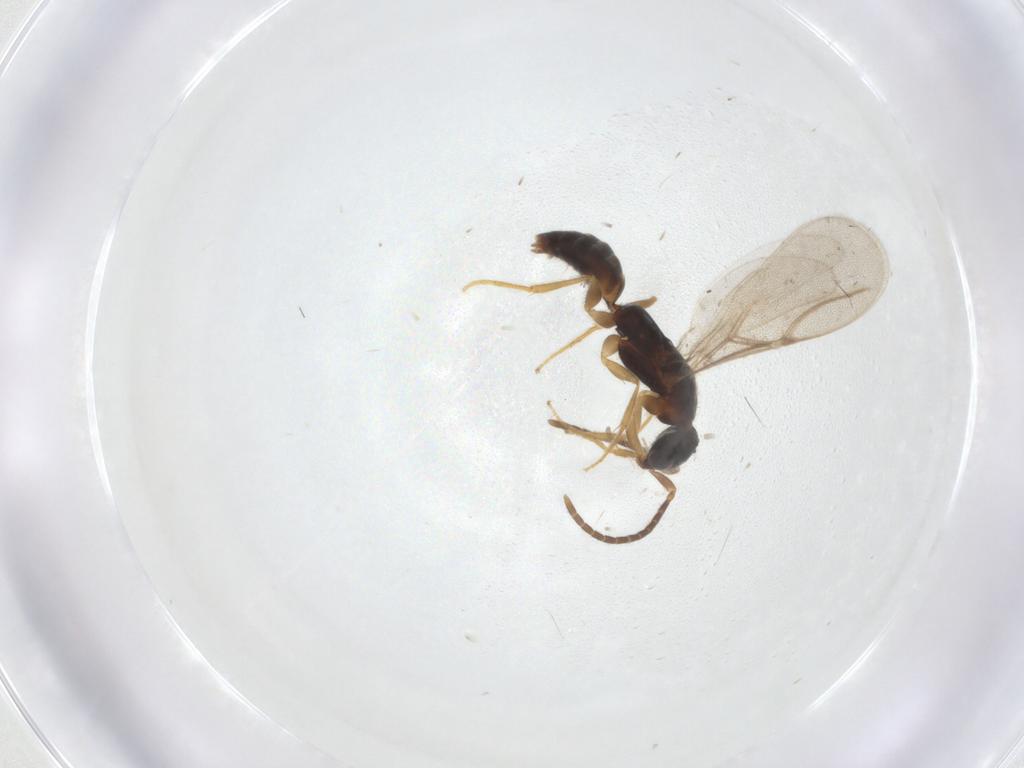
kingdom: Animalia
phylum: Arthropoda
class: Insecta
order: Hymenoptera
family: Bethylidae
